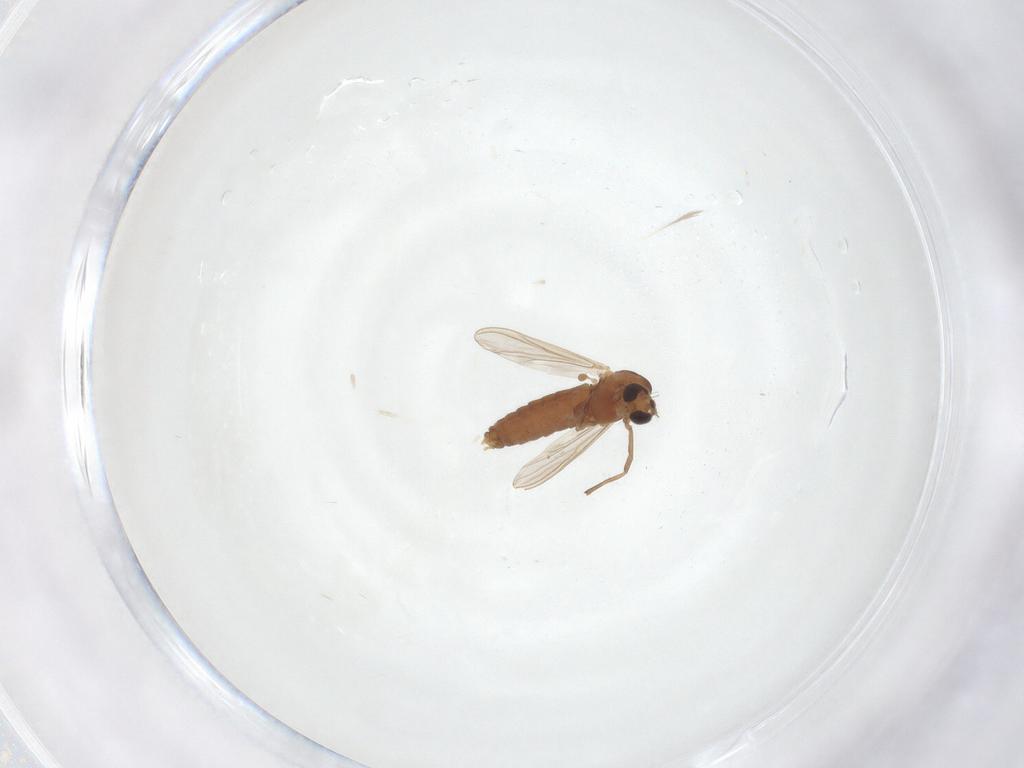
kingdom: Animalia
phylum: Arthropoda
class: Insecta
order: Diptera
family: Chironomidae
